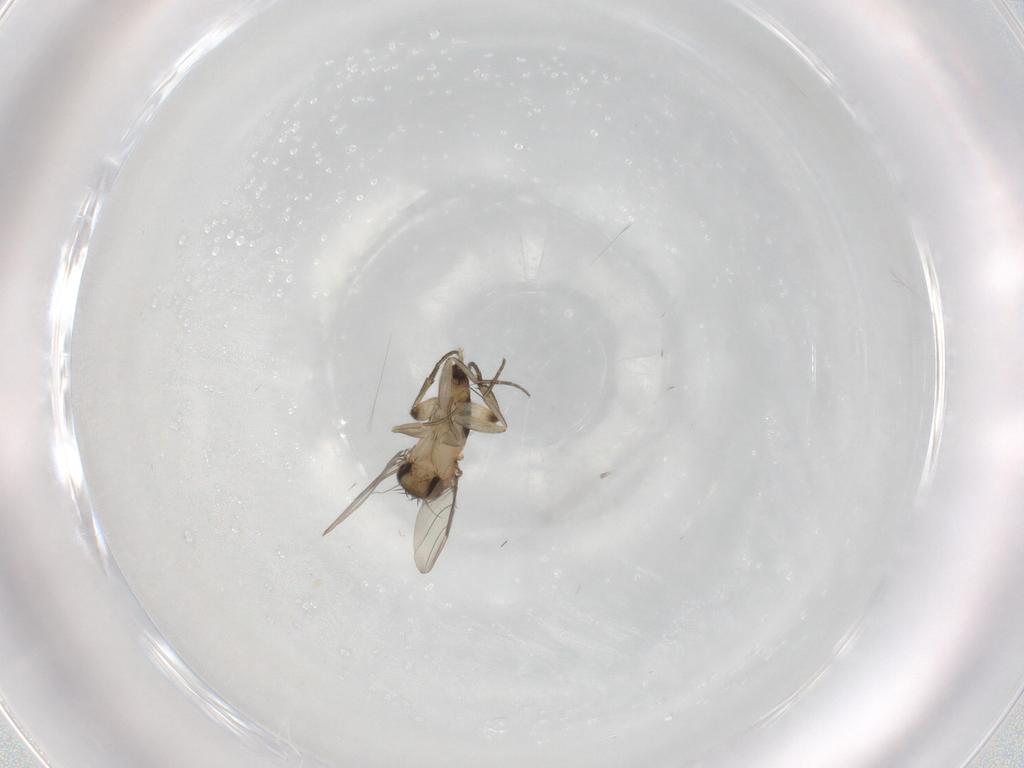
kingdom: Animalia
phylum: Arthropoda
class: Insecta
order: Diptera
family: Phoridae
